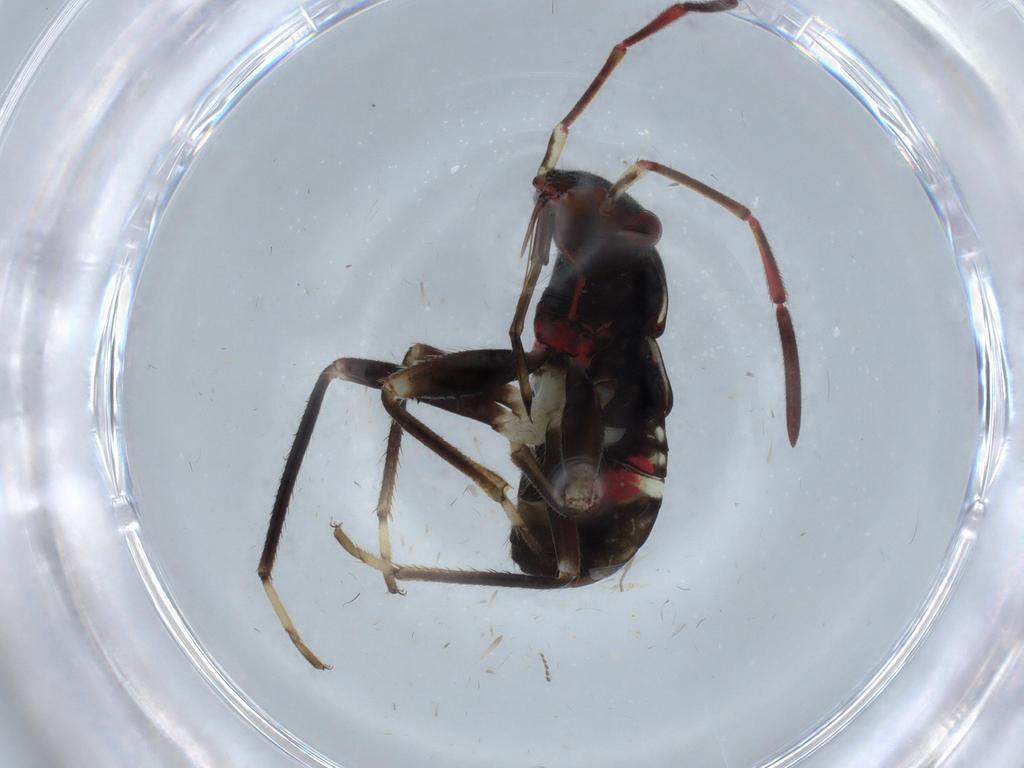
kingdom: Animalia
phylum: Arthropoda
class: Insecta
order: Hemiptera
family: Rhyparochromidae
